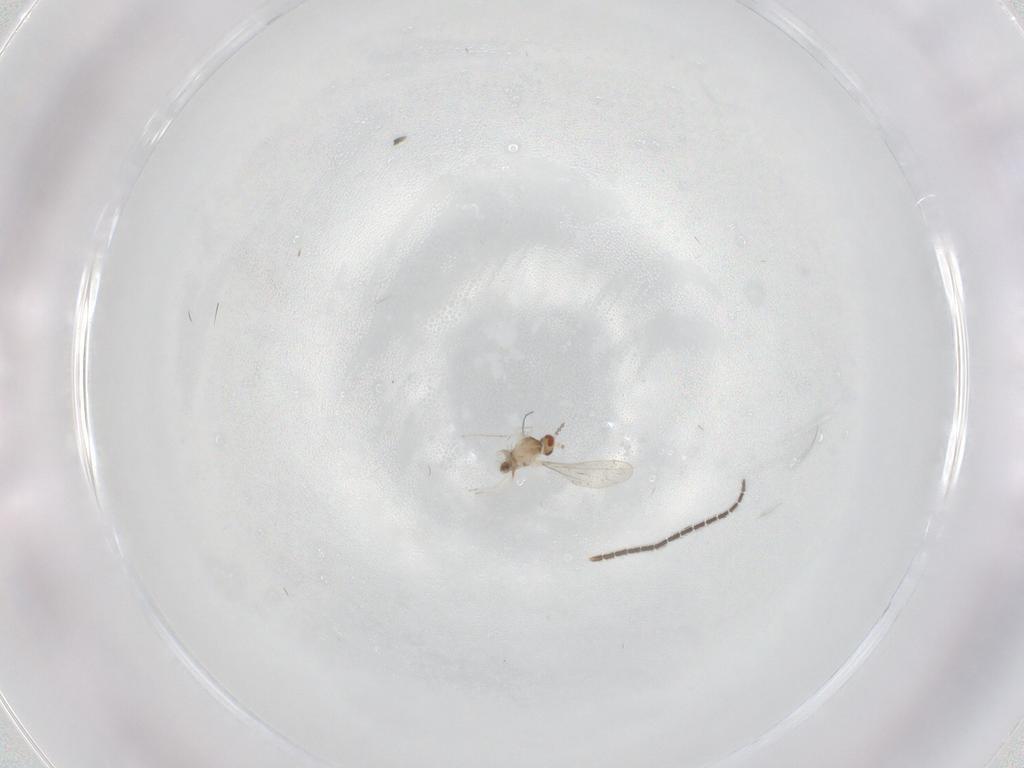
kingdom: Animalia
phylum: Arthropoda
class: Insecta
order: Diptera
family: Cecidomyiidae
